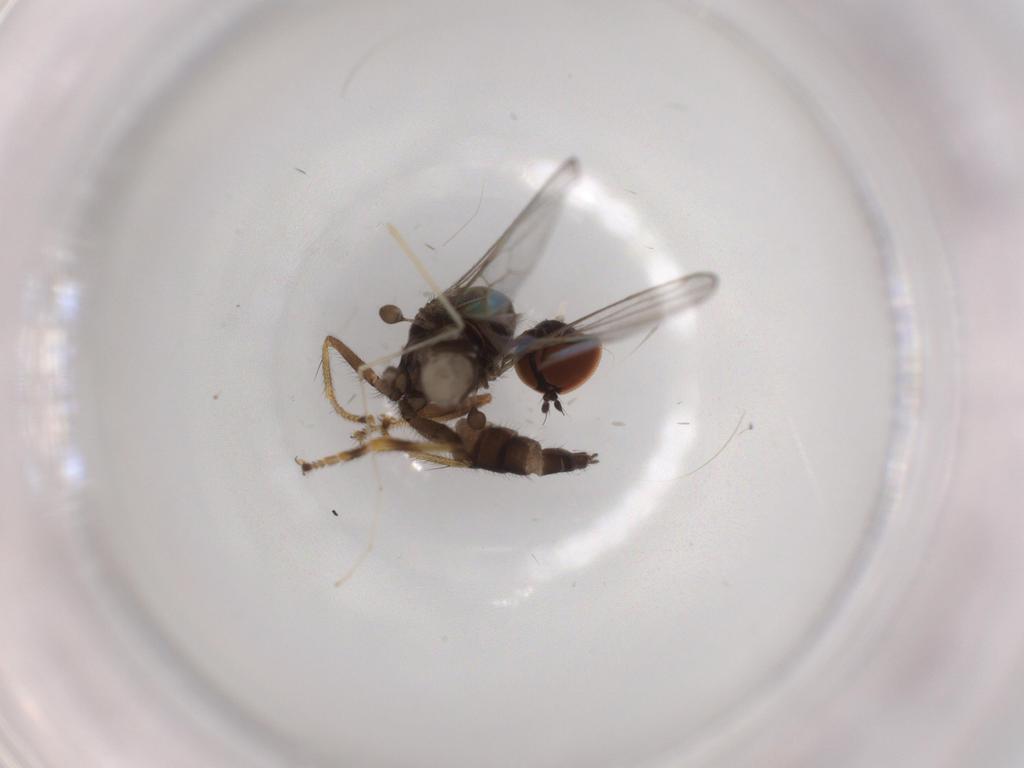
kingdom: Animalia
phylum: Arthropoda
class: Insecta
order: Diptera
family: Hybotidae
